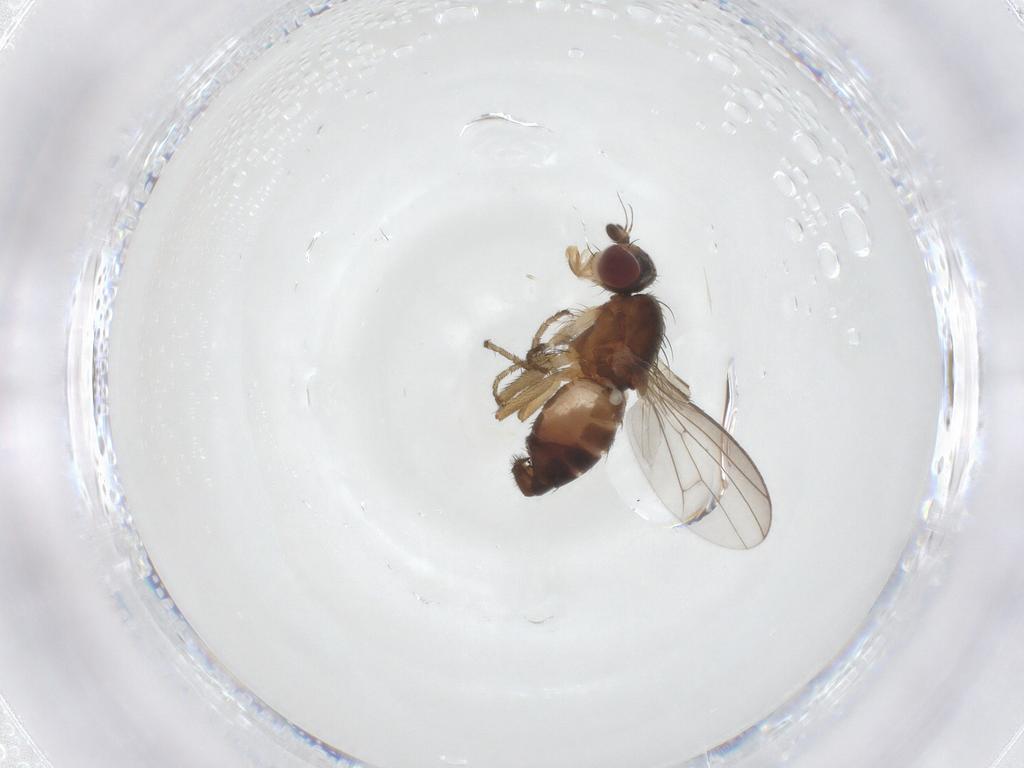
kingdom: Animalia
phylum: Arthropoda
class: Insecta
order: Diptera
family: Heleomyzidae
